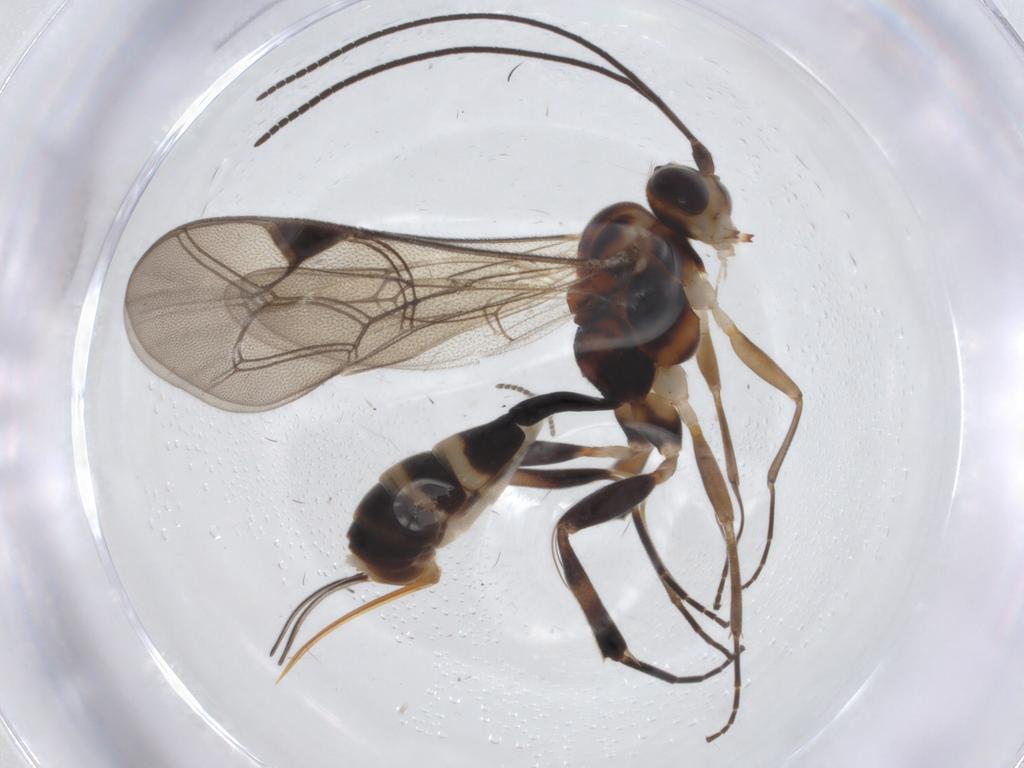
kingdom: Animalia
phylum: Arthropoda
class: Insecta
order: Hymenoptera
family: Ichneumonidae
